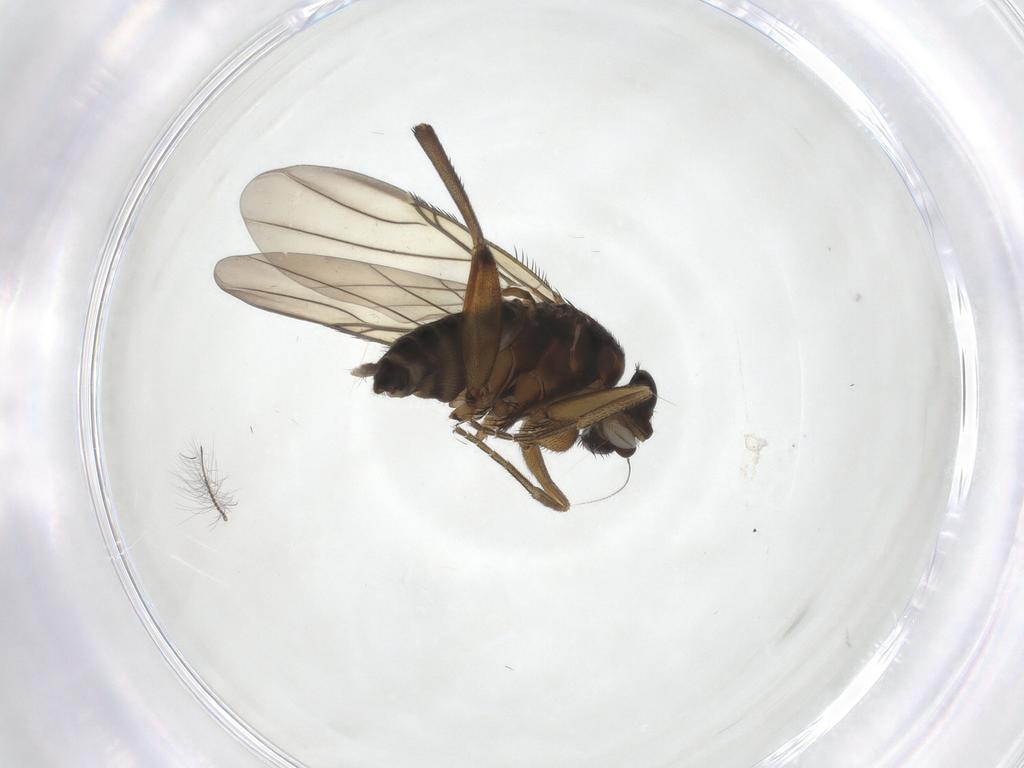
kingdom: Animalia
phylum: Arthropoda
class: Insecta
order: Diptera
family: Phoridae
